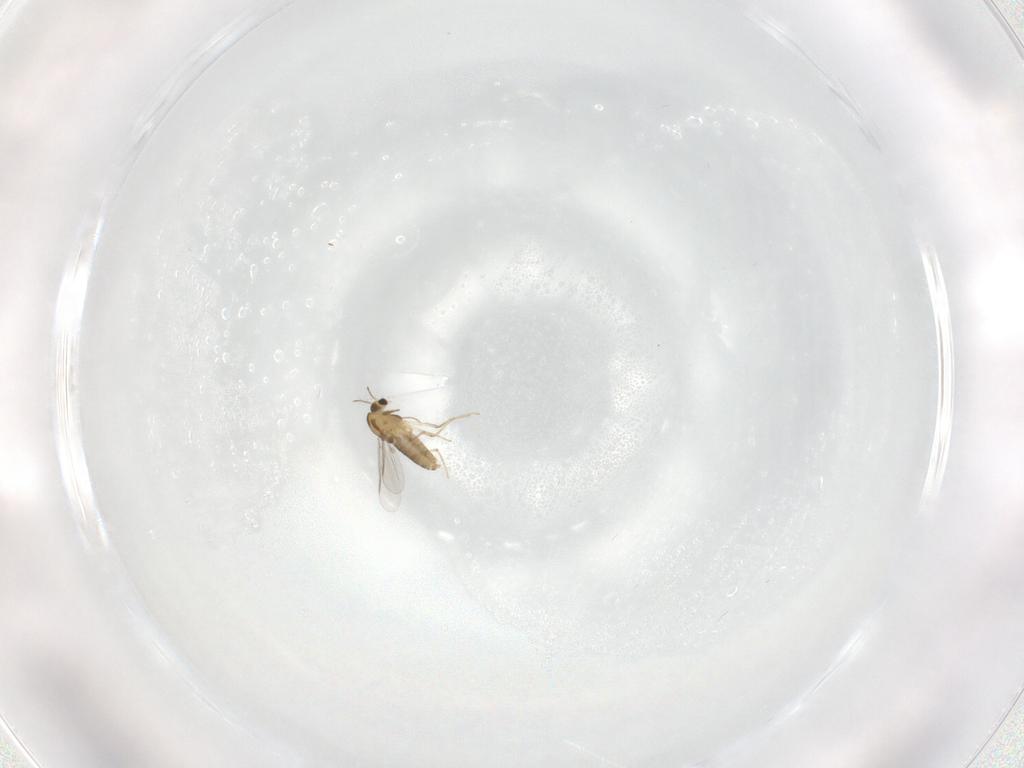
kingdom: Animalia
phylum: Arthropoda
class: Insecta
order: Diptera
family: Chironomidae
